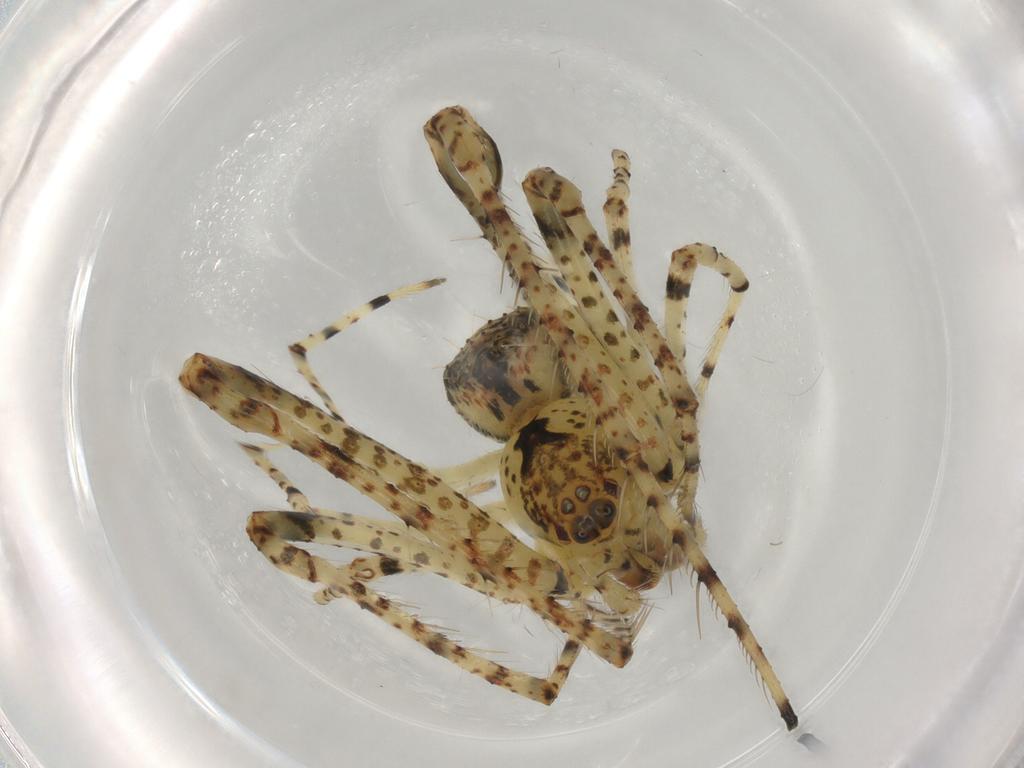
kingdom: Animalia
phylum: Arthropoda
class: Arachnida
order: Araneae
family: Mimetidae
